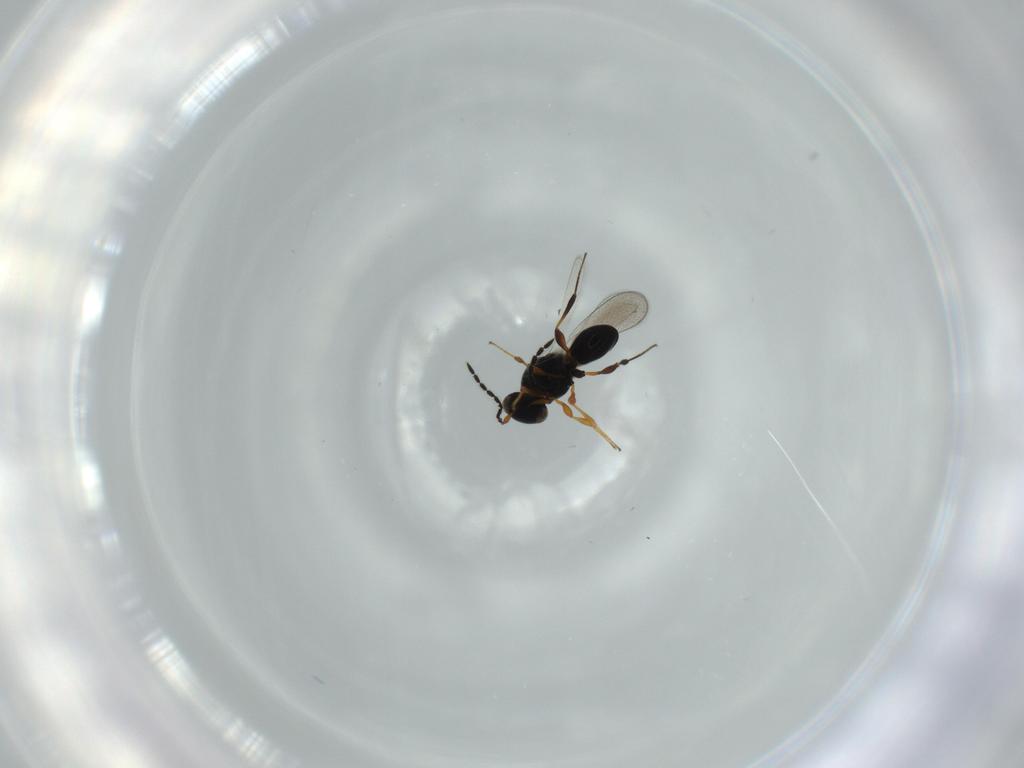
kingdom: Animalia
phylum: Arthropoda
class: Insecta
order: Hymenoptera
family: Platygastridae
